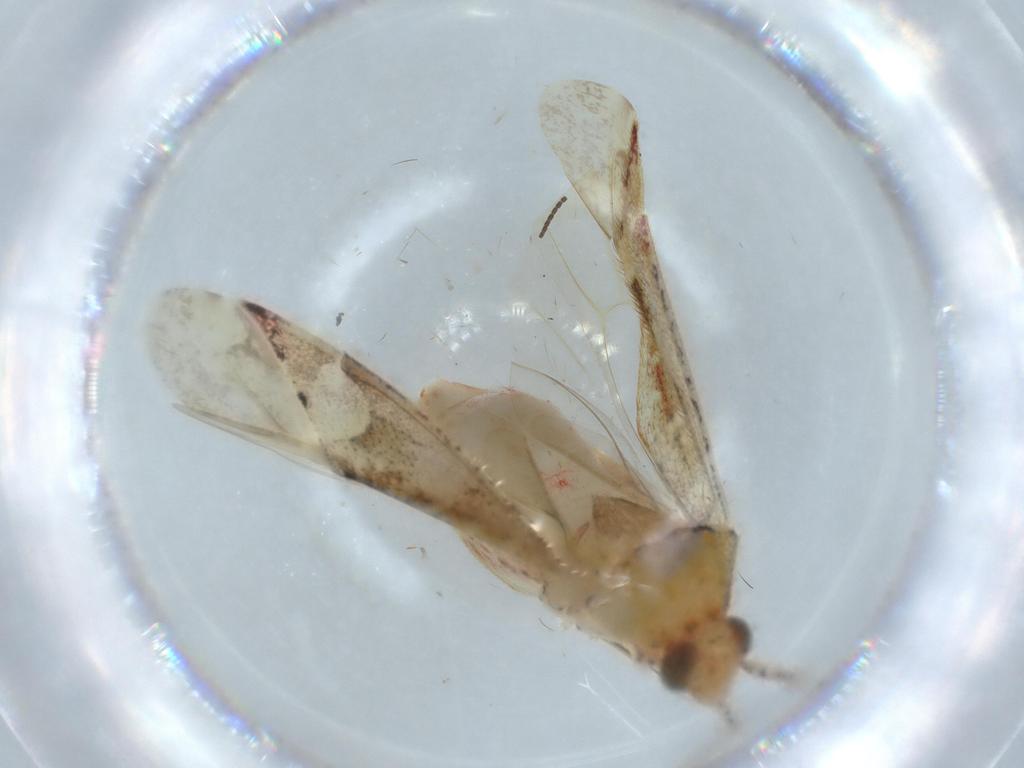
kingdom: Animalia
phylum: Arthropoda
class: Insecta
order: Hemiptera
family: Miridae
